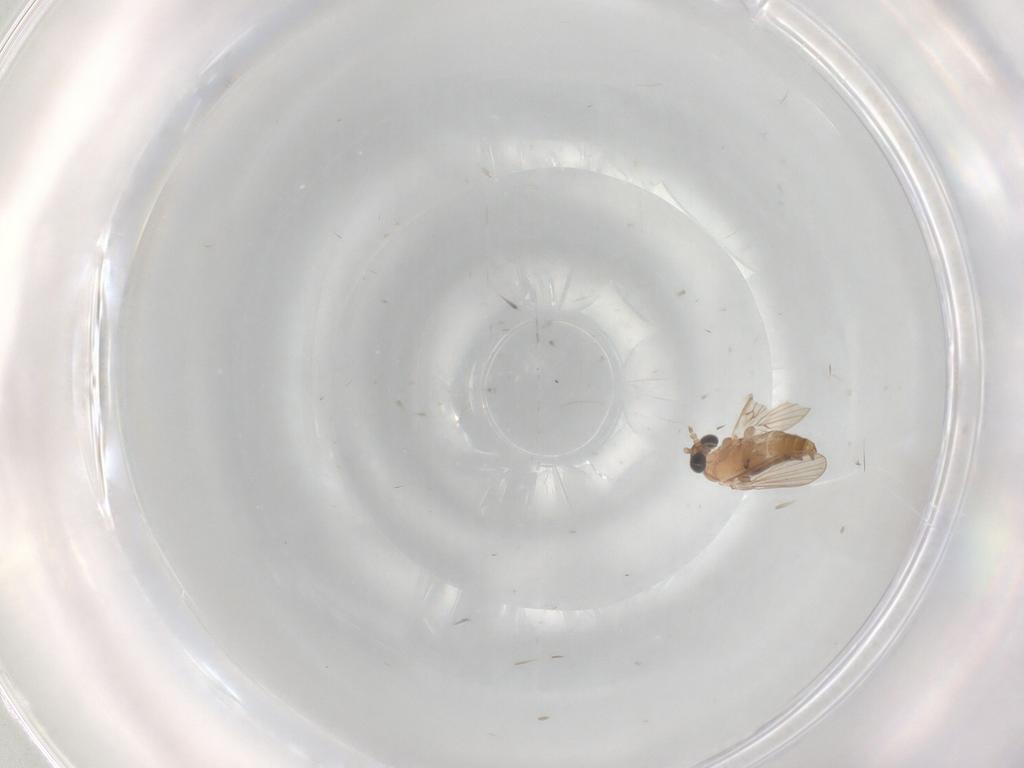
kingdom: Animalia
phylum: Arthropoda
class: Insecta
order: Diptera
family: Cecidomyiidae
